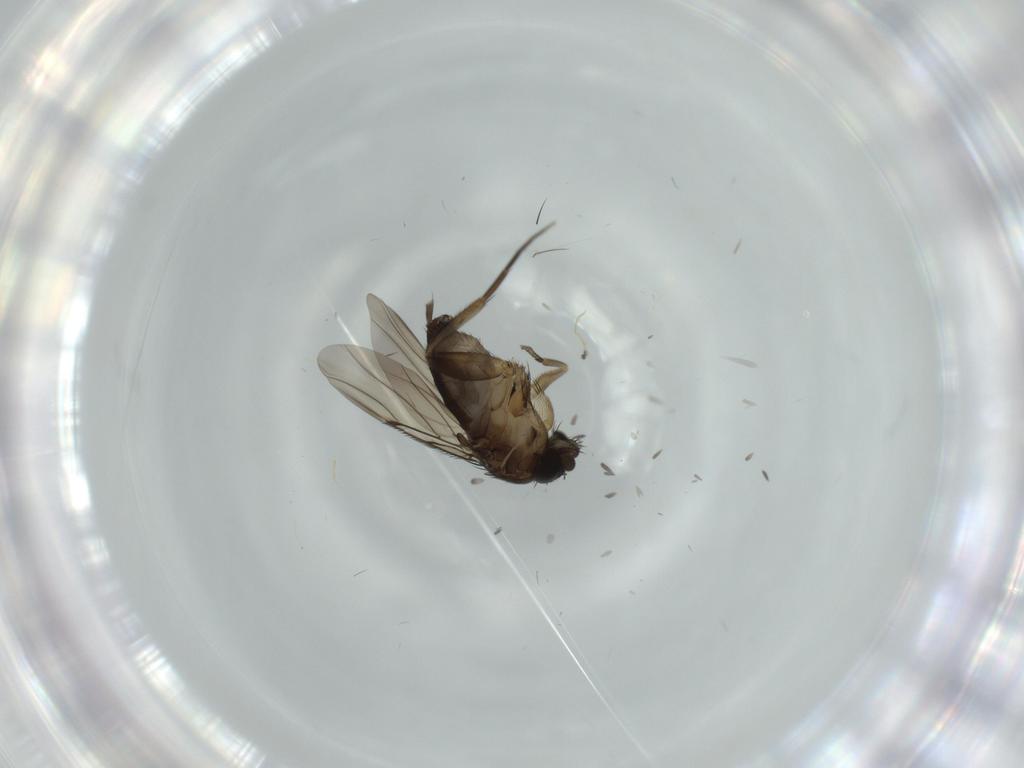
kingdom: Animalia
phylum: Arthropoda
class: Insecta
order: Diptera
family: Phoridae
